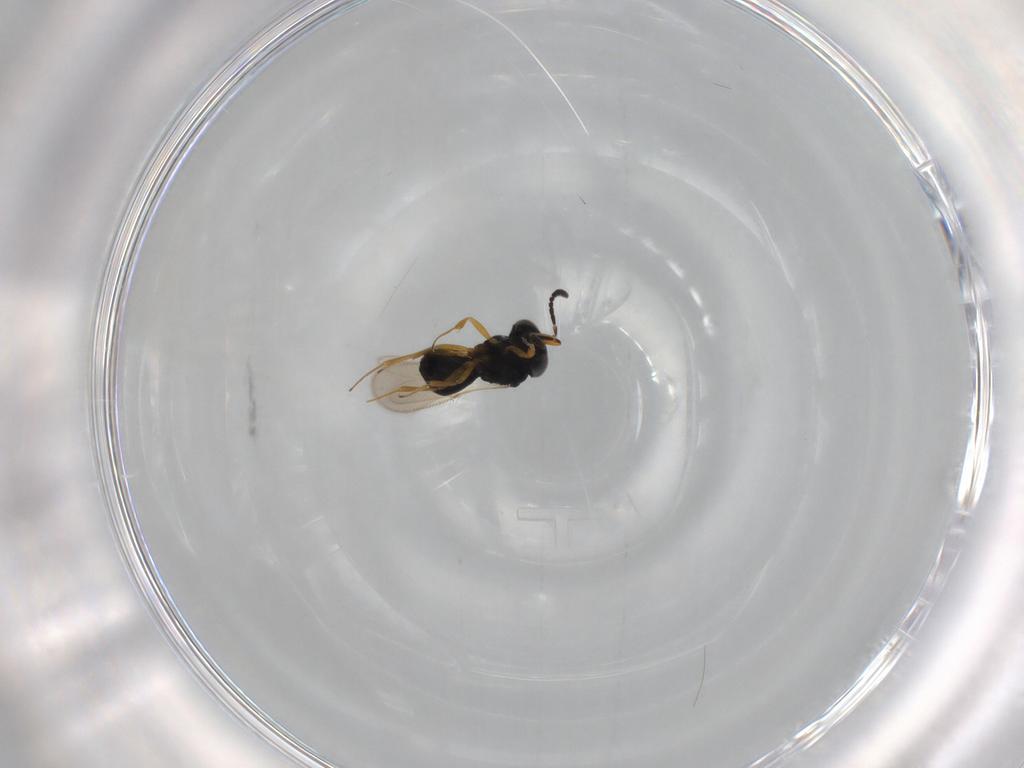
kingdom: Animalia
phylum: Arthropoda
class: Insecta
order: Hymenoptera
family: Scelionidae
